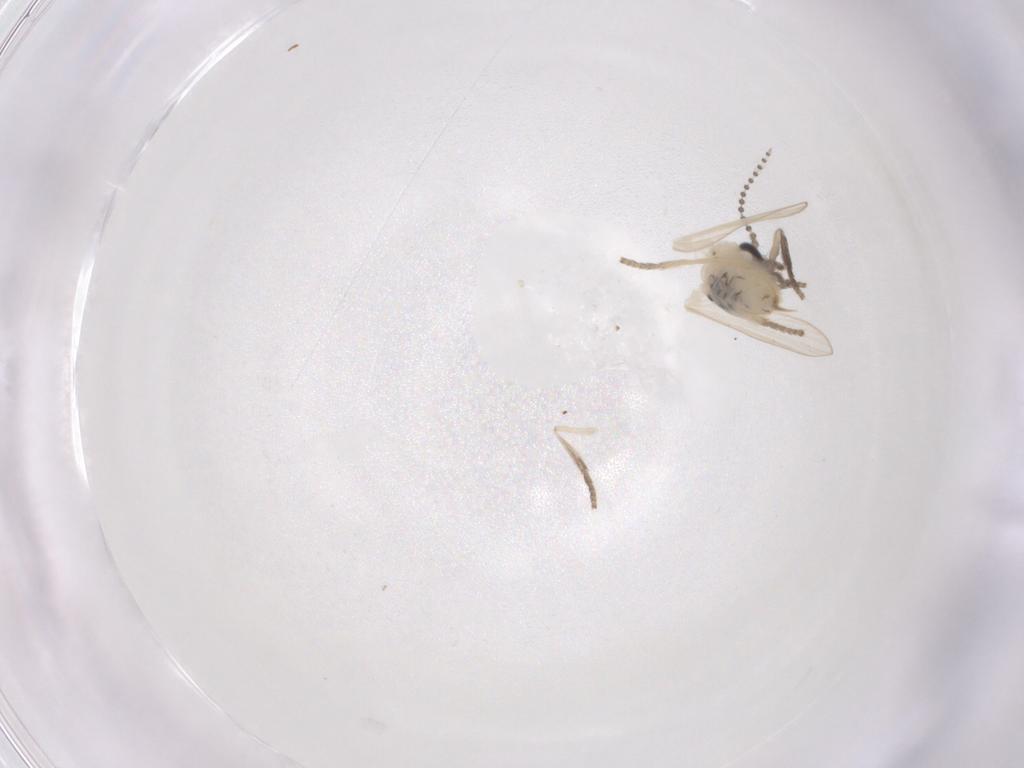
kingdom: Animalia
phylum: Arthropoda
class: Insecta
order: Diptera
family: Psychodidae
